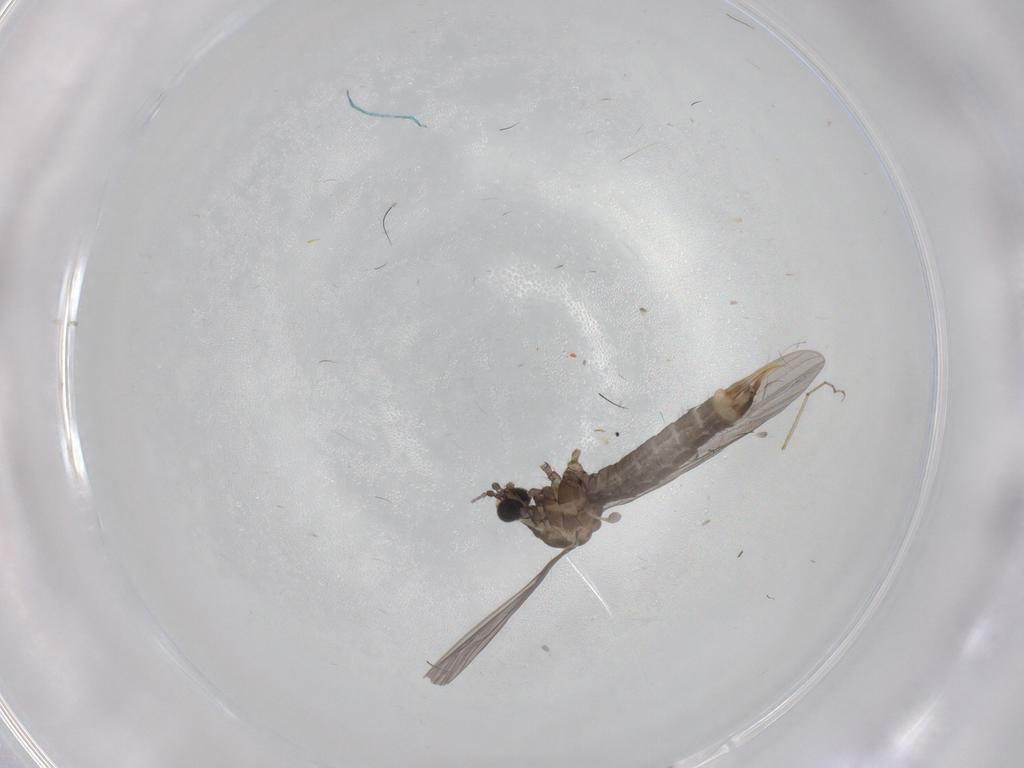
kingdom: Animalia
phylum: Arthropoda
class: Insecta
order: Diptera
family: Limoniidae
